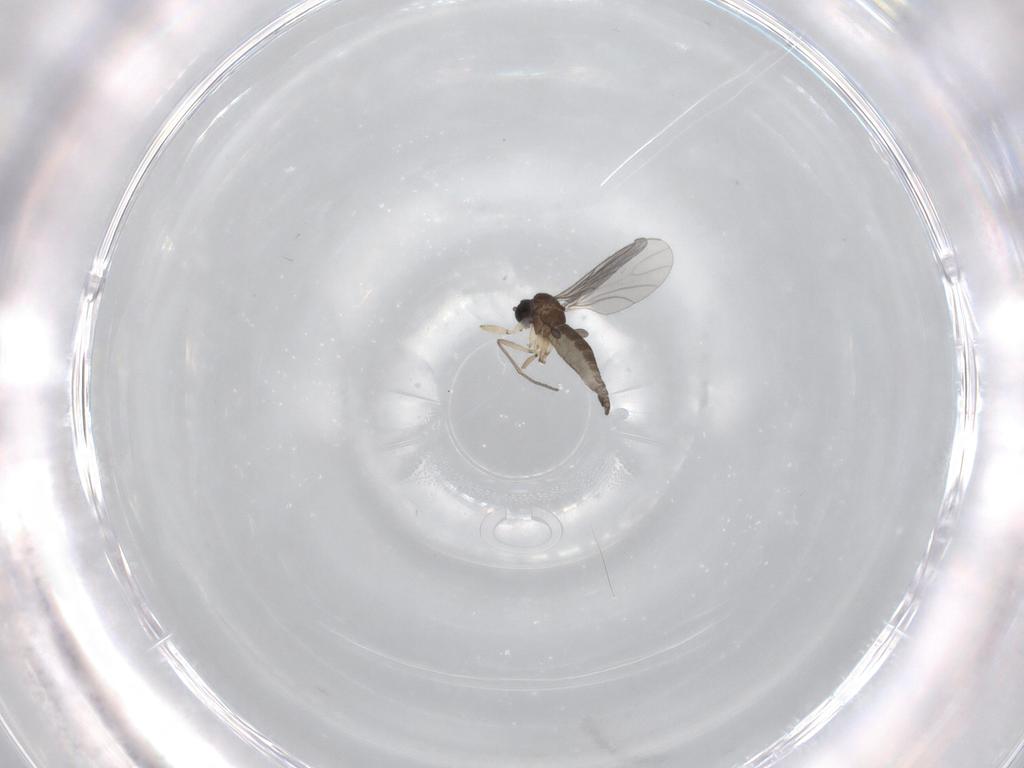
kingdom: Animalia
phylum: Arthropoda
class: Insecta
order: Diptera
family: Sciaridae
